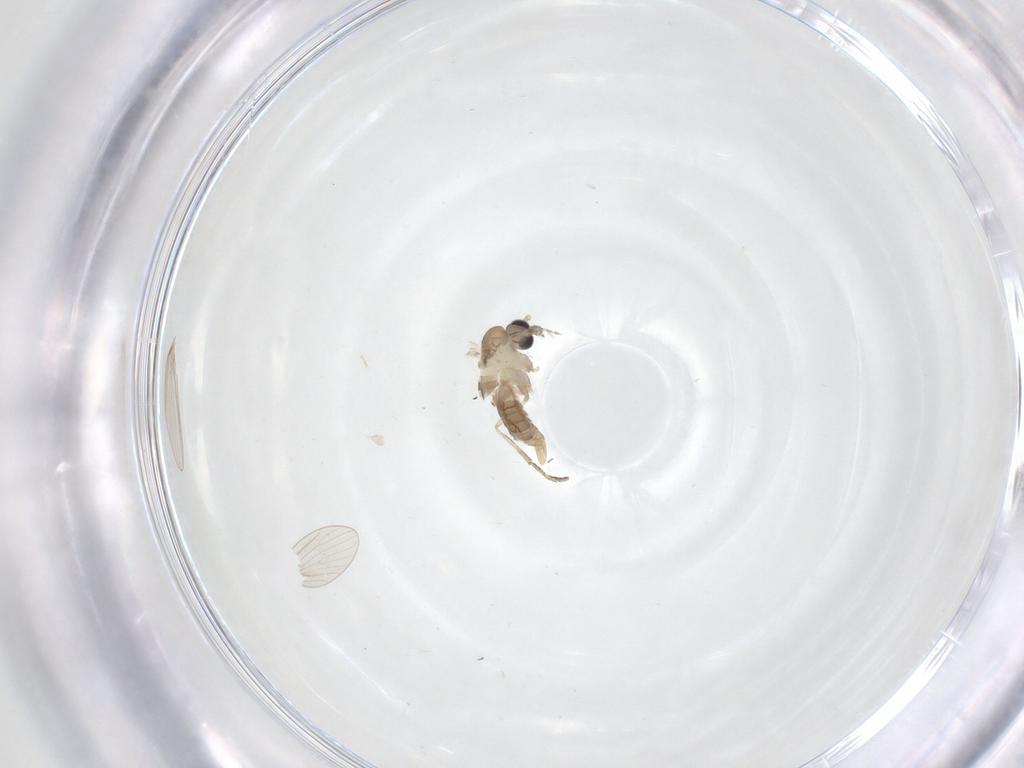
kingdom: Animalia
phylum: Arthropoda
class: Insecta
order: Diptera
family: Psychodidae
